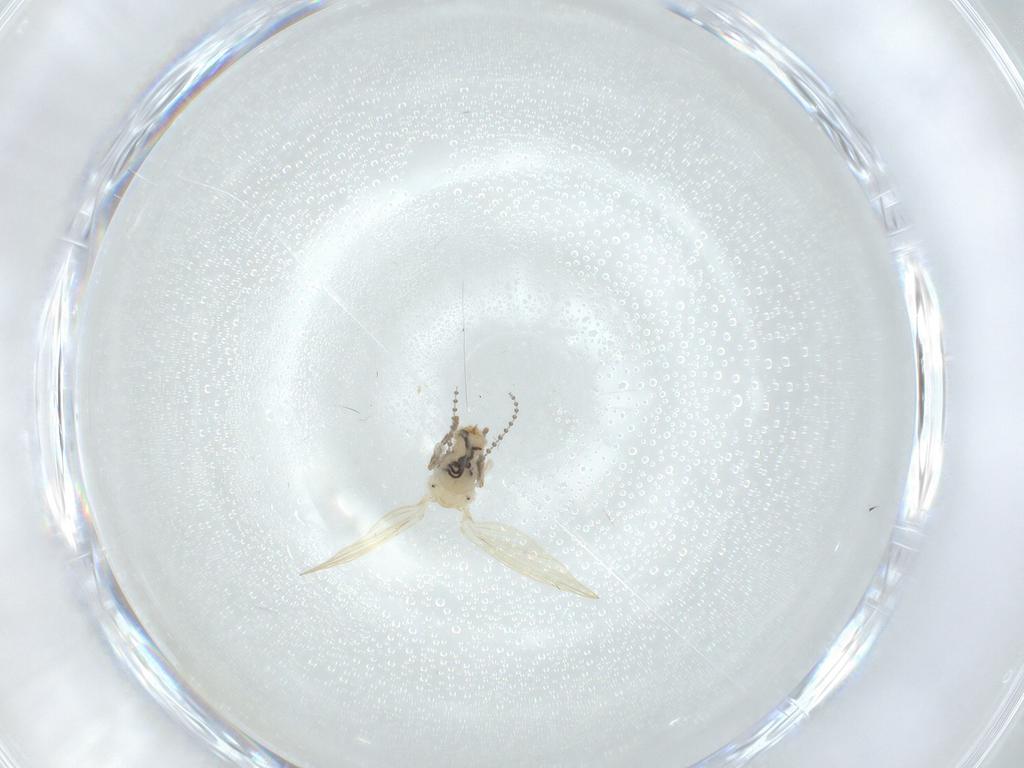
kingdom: Animalia
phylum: Arthropoda
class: Insecta
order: Diptera
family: Psychodidae
